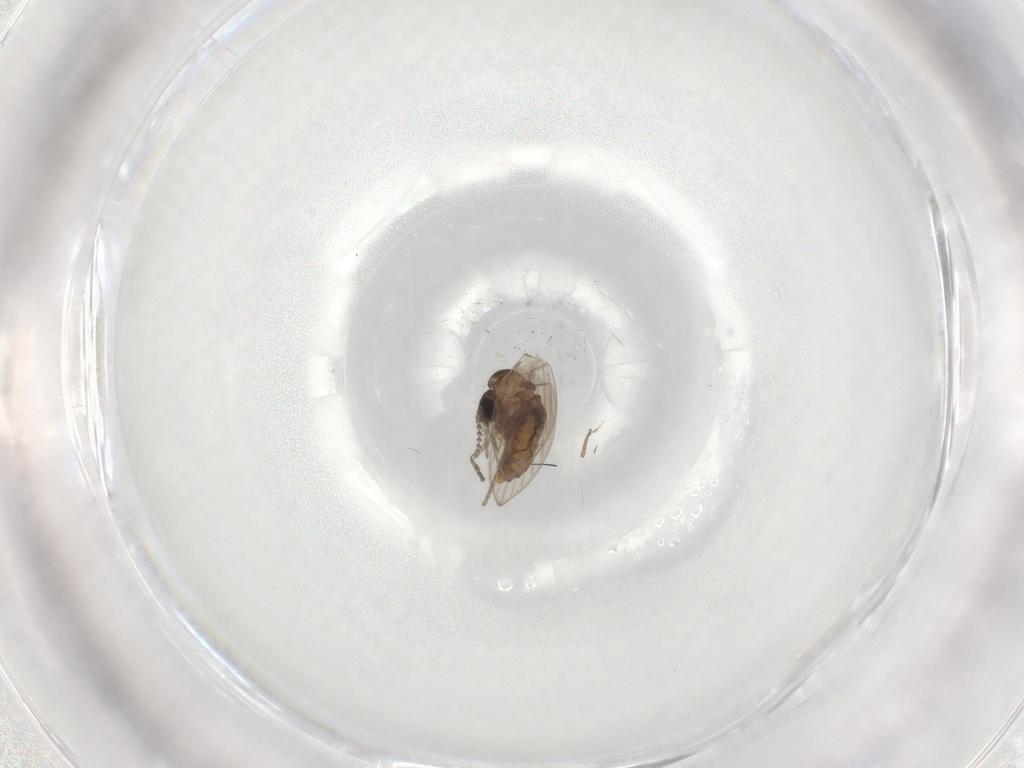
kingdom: Animalia
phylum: Arthropoda
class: Insecta
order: Diptera
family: Psychodidae
